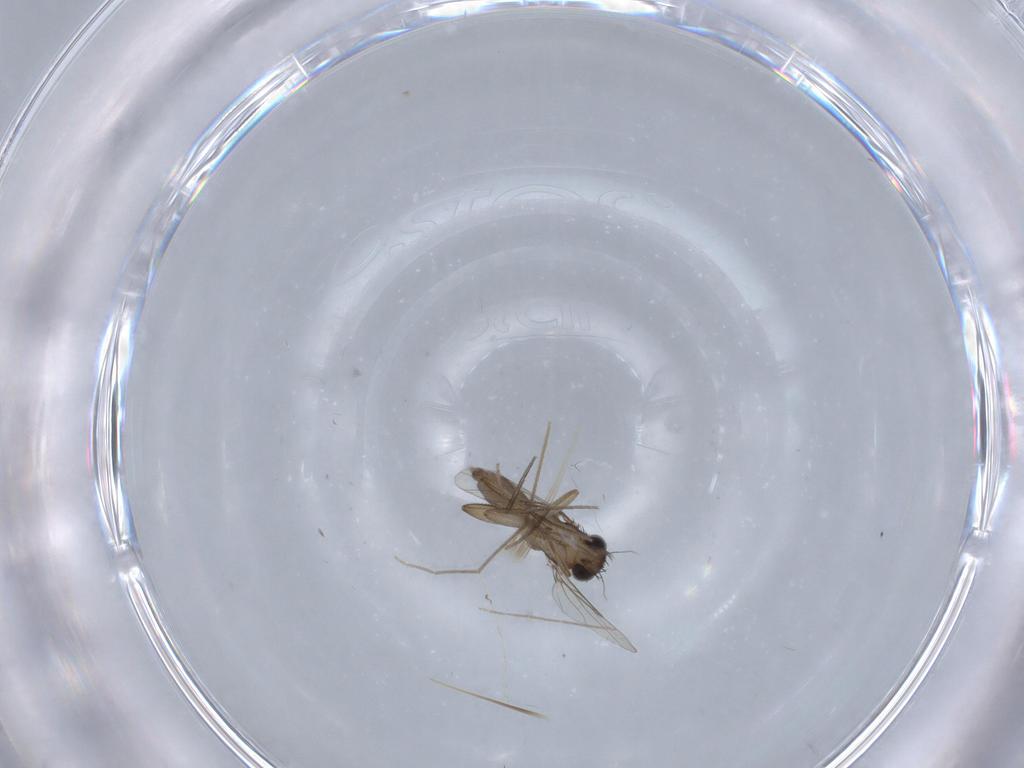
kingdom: Animalia
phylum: Arthropoda
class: Insecta
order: Diptera
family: Phoridae
